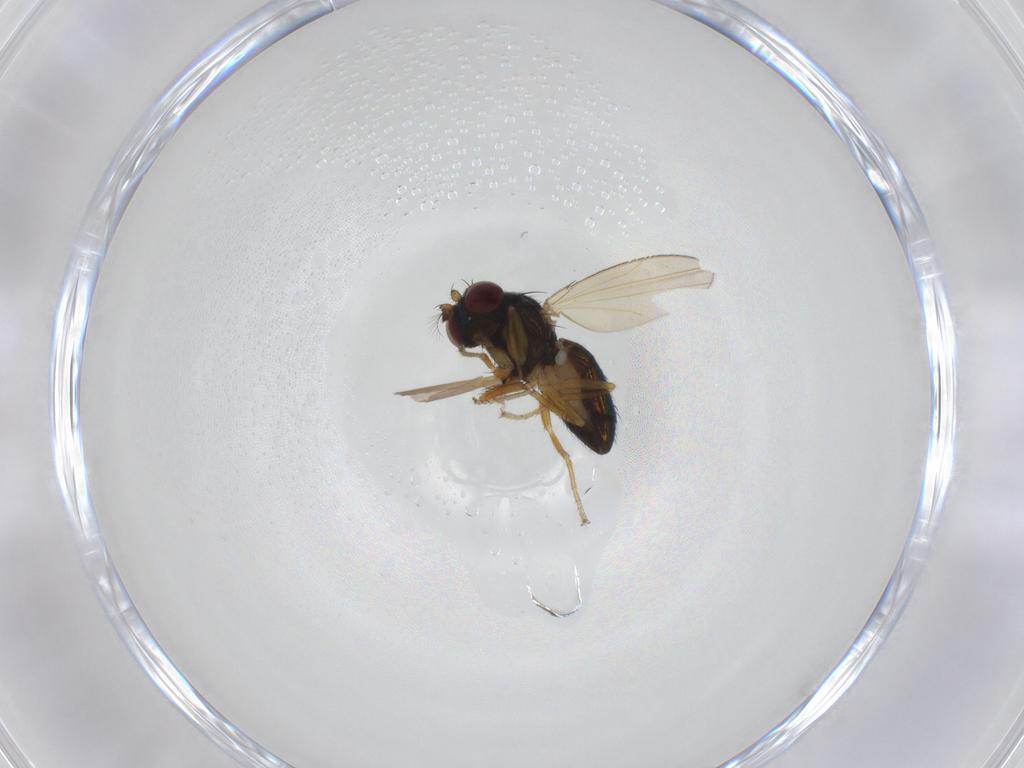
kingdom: Animalia
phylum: Arthropoda
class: Insecta
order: Diptera
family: Ephydridae
